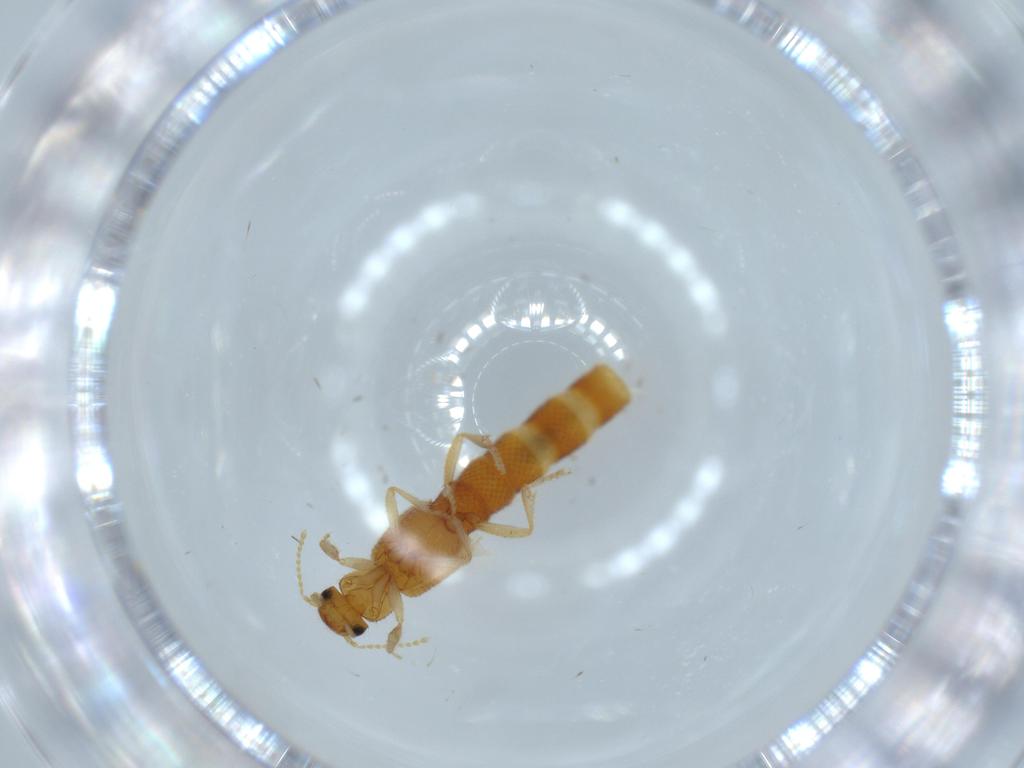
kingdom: Animalia
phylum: Arthropoda
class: Insecta
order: Coleoptera
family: Staphylinidae
